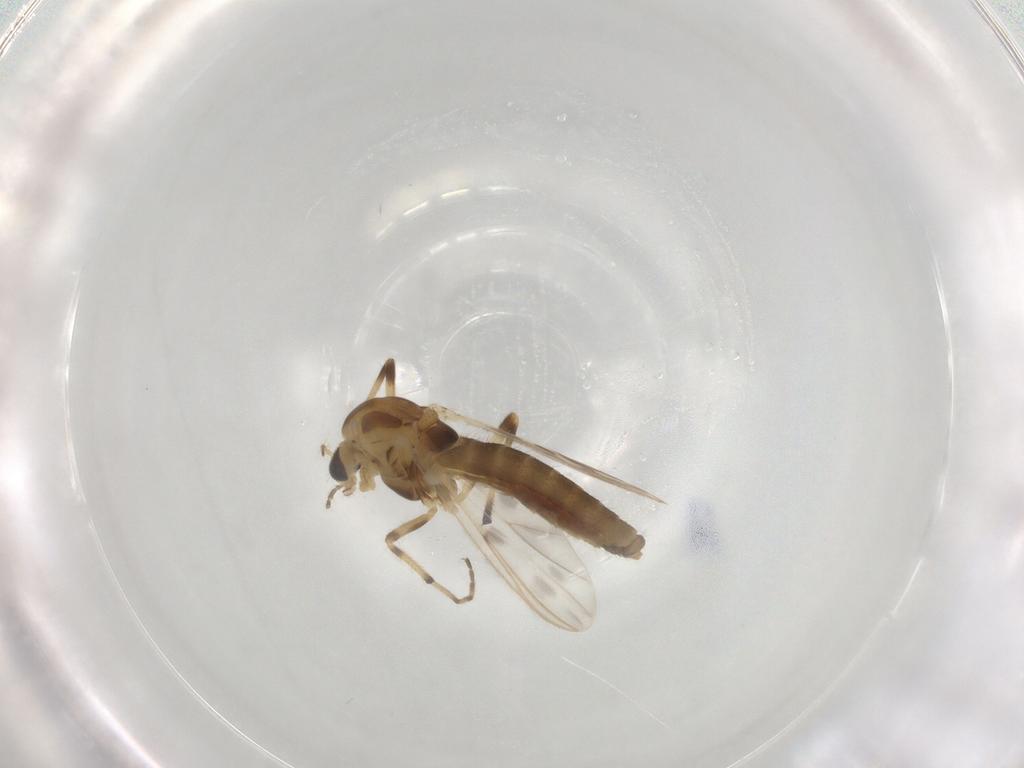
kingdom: Animalia
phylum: Arthropoda
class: Insecta
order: Diptera
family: Chironomidae
